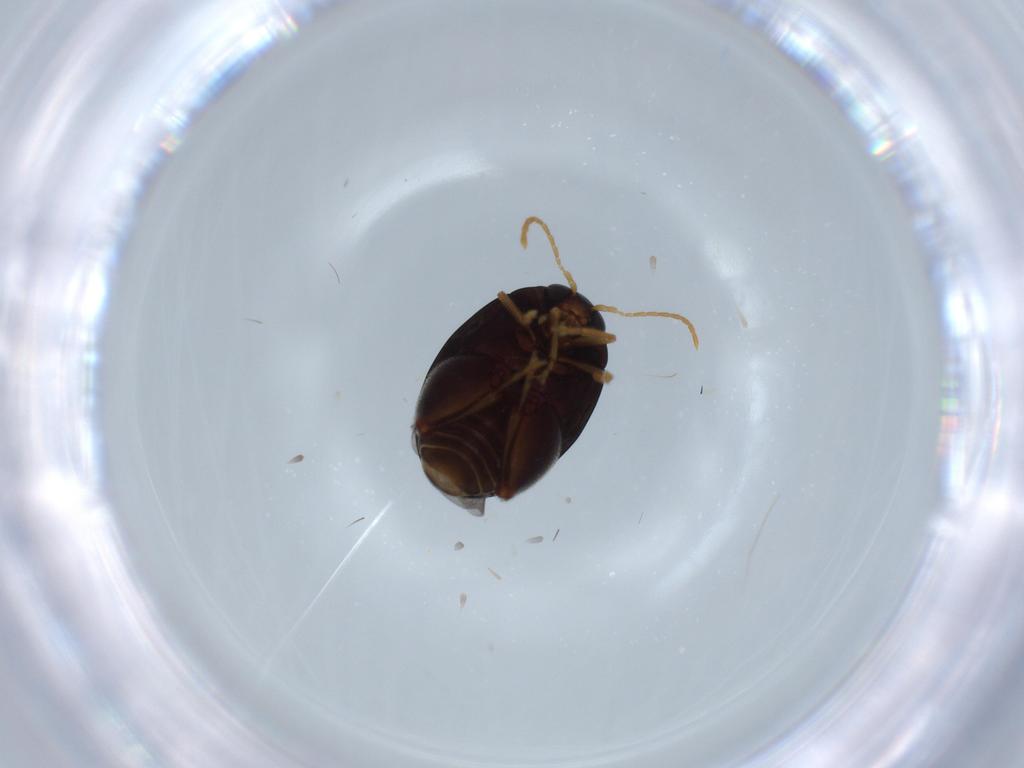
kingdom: Animalia
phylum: Arthropoda
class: Insecta
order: Coleoptera
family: Chrysomelidae
